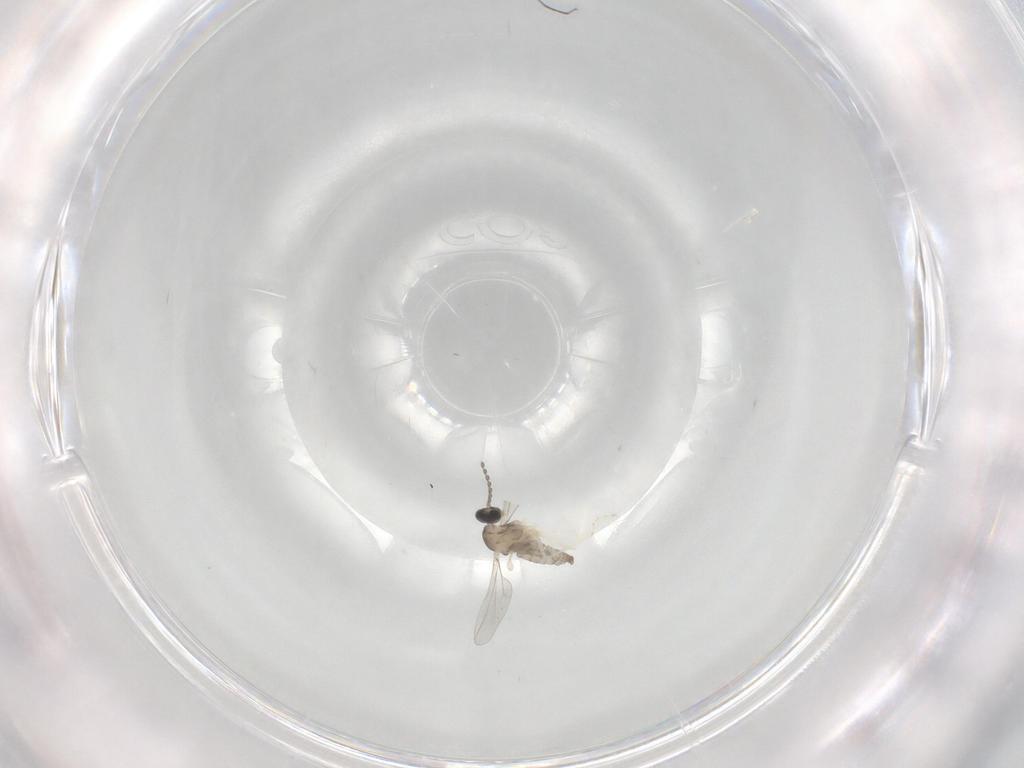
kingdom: Animalia
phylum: Arthropoda
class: Insecta
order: Diptera
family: Cecidomyiidae
